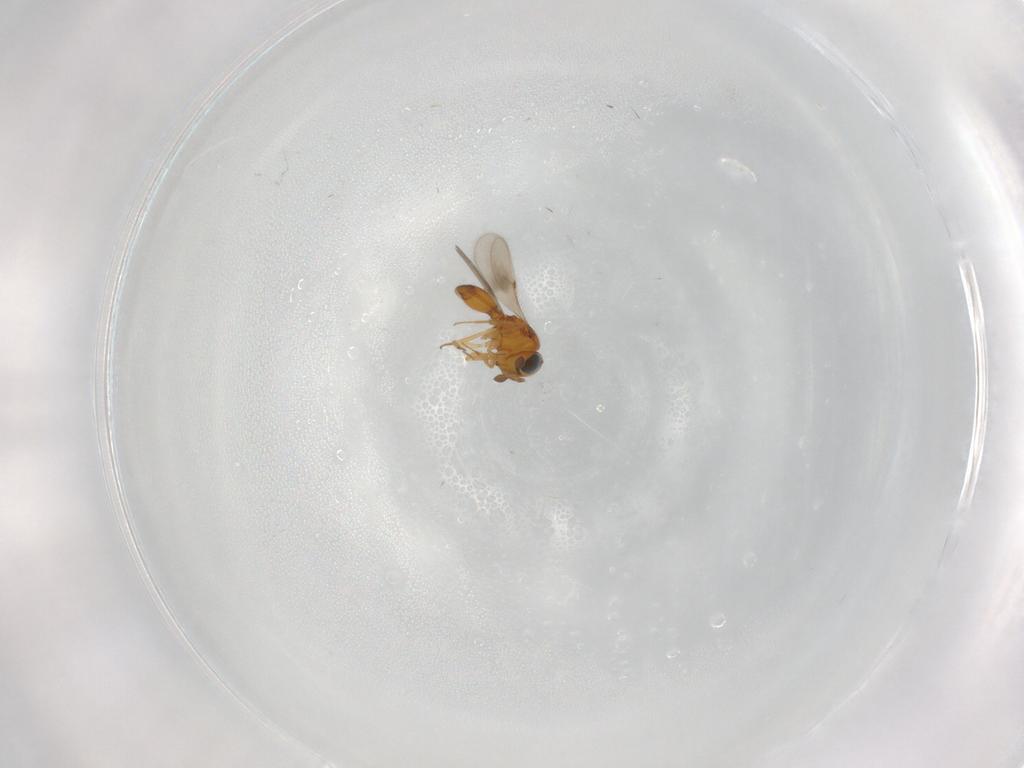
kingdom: Animalia
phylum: Arthropoda
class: Insecta
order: Hymenoptera
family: Scelionidae
